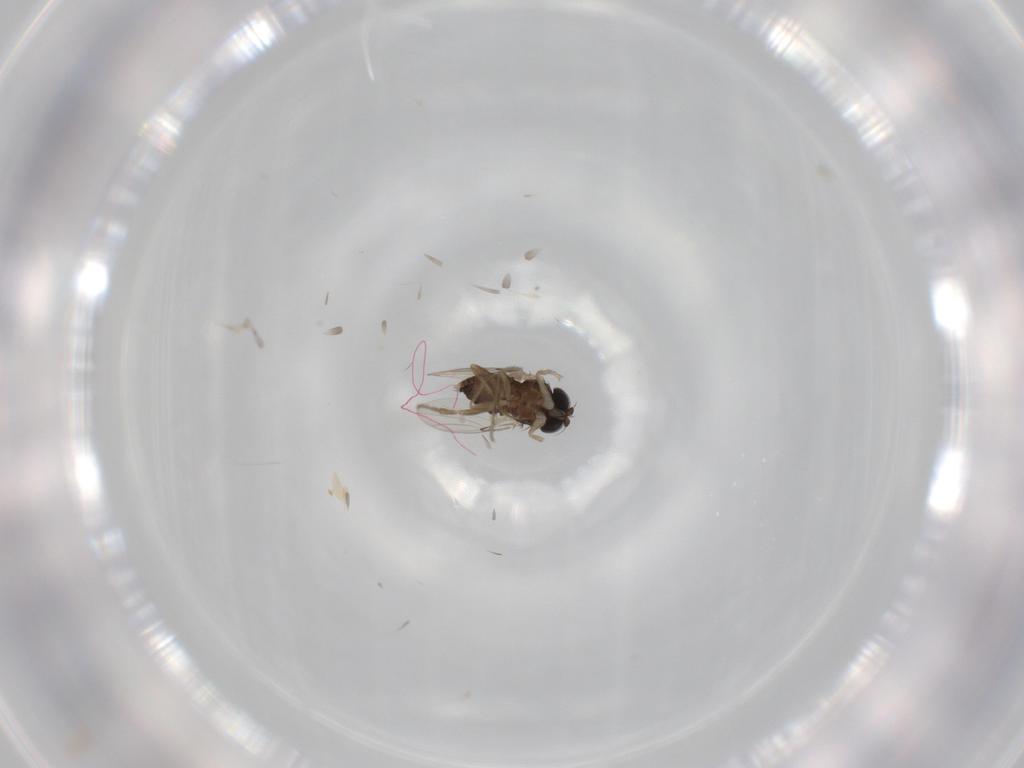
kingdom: Animalia
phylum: Arthropoda
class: Insecta
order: Diptera
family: Phoridae
